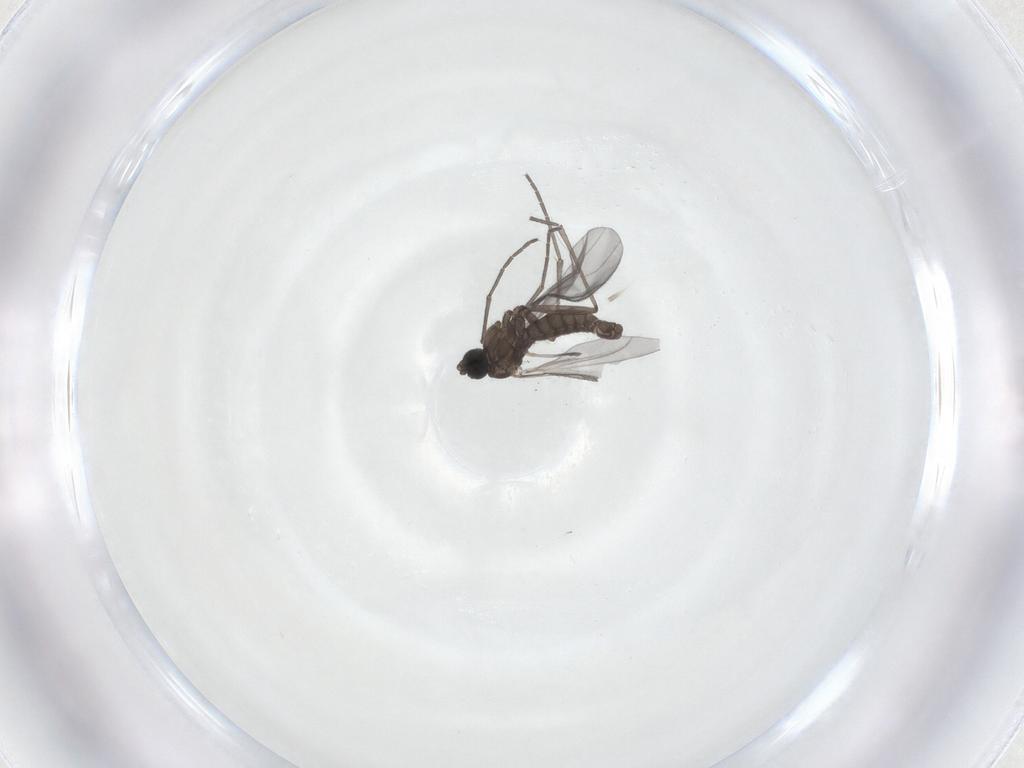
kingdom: Animalia
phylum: Arthropoda
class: Insecta
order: Diptera
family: Sciaridae
